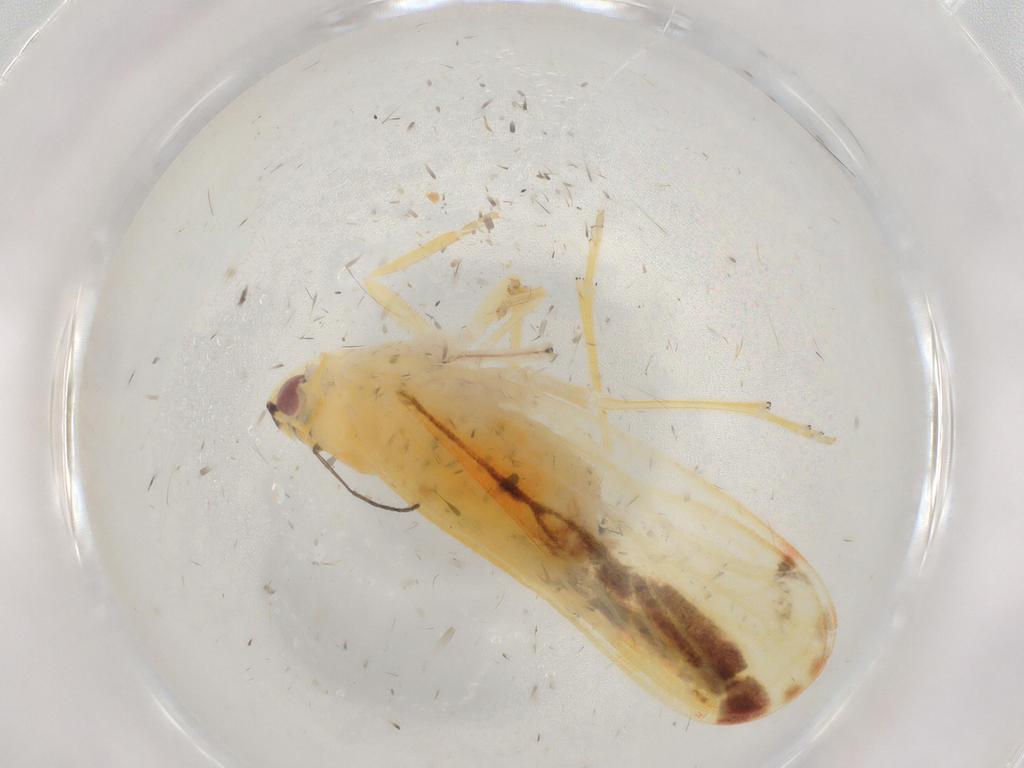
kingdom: Animalia
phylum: Arthropoda
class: Insecta
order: Hemiptera
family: Derbidae
